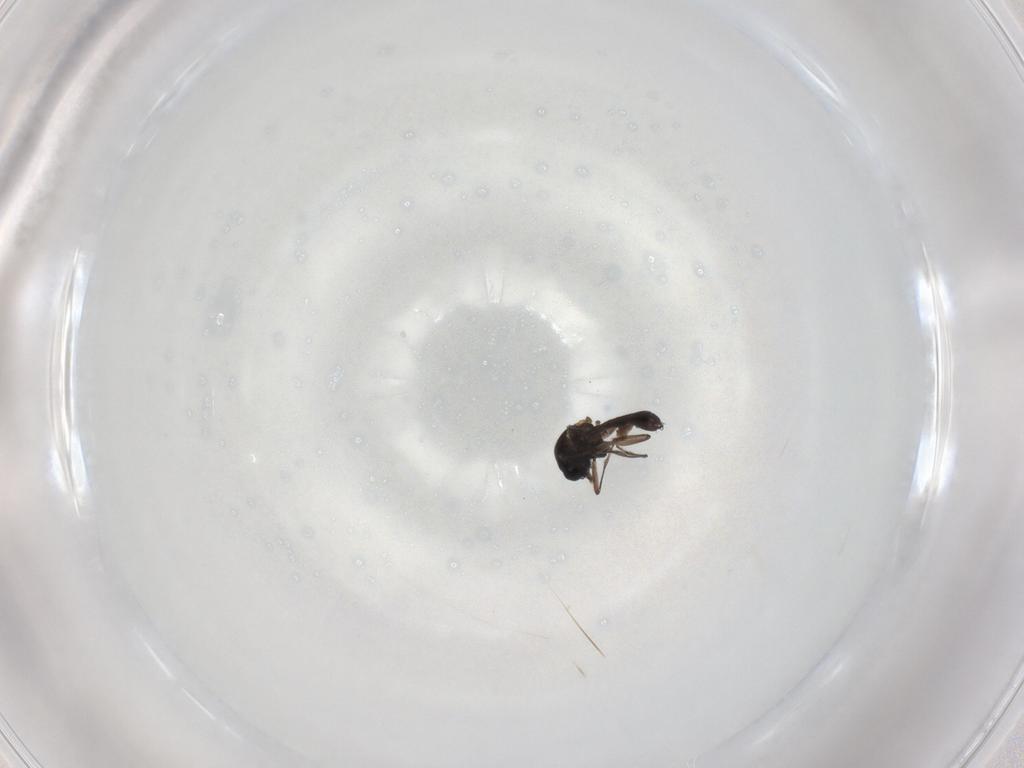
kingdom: Animalia
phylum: Arthropoda
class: Insecta
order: Diptera
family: Ceratopogonidae
